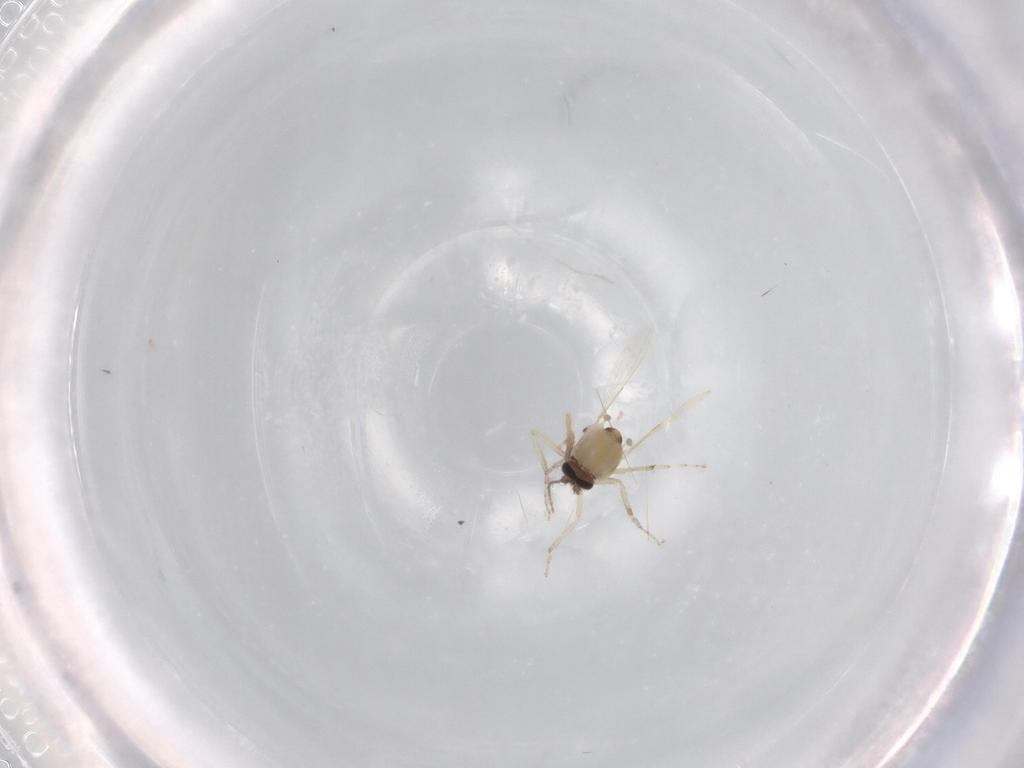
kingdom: Animalia
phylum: Arthropoda
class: Insecta
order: Diptera
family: Ceratopogonidae
